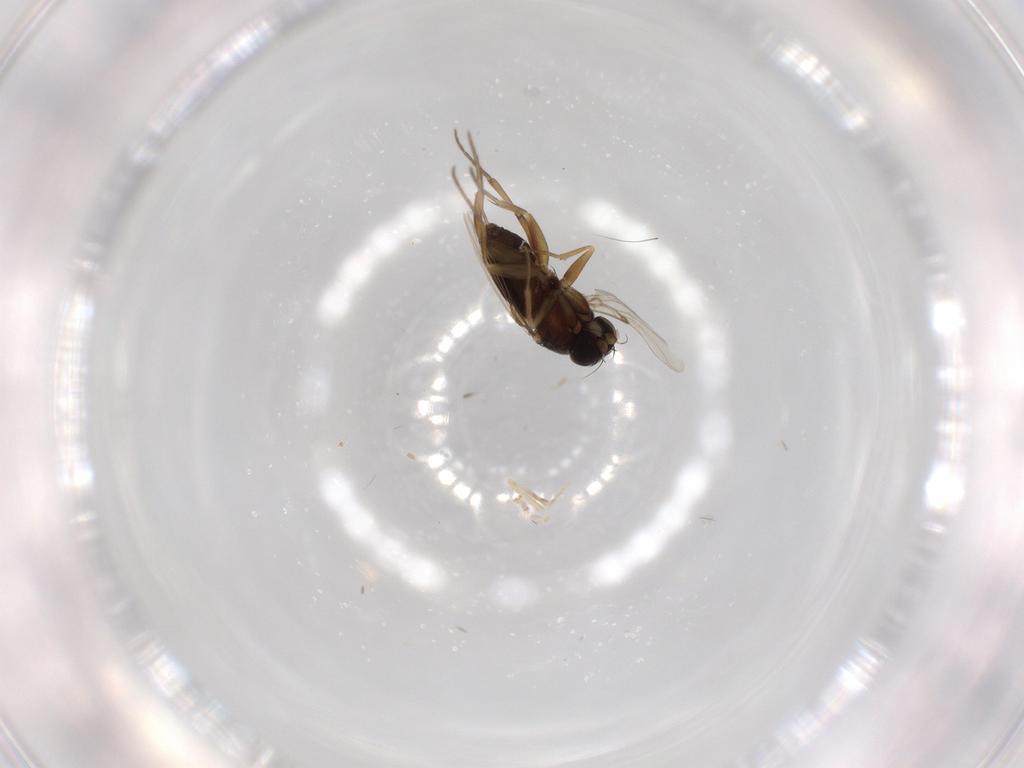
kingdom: Animalia
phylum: Arthropoda
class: Insecta
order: Diptera
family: Phoridae
